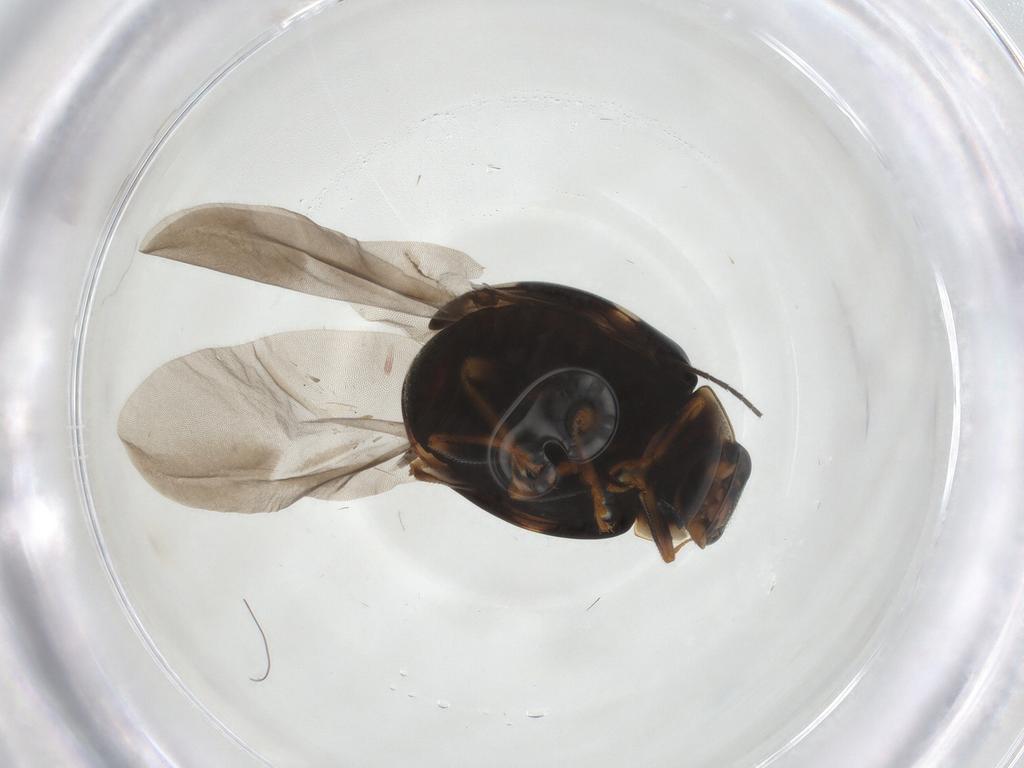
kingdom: Animalia
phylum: Arthropoda
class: Insecta
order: Coleoptera
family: Coccinellidae
